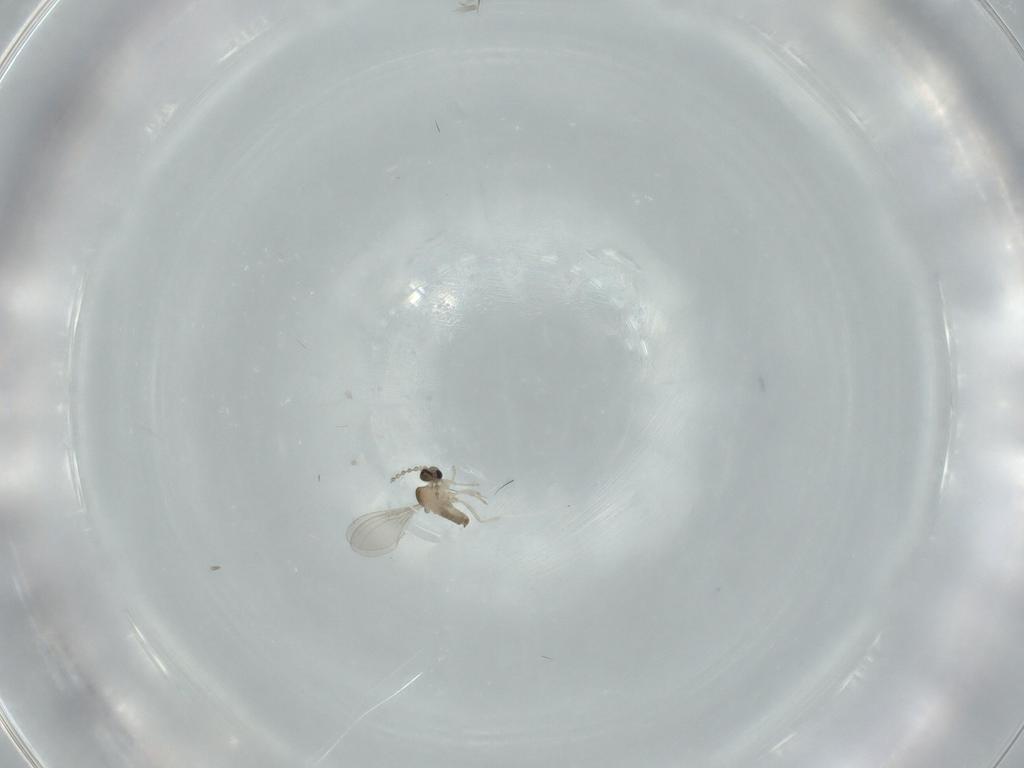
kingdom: Animalia
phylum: Arthropoda
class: Insecta
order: Diptera
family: Cecidomyiidae
